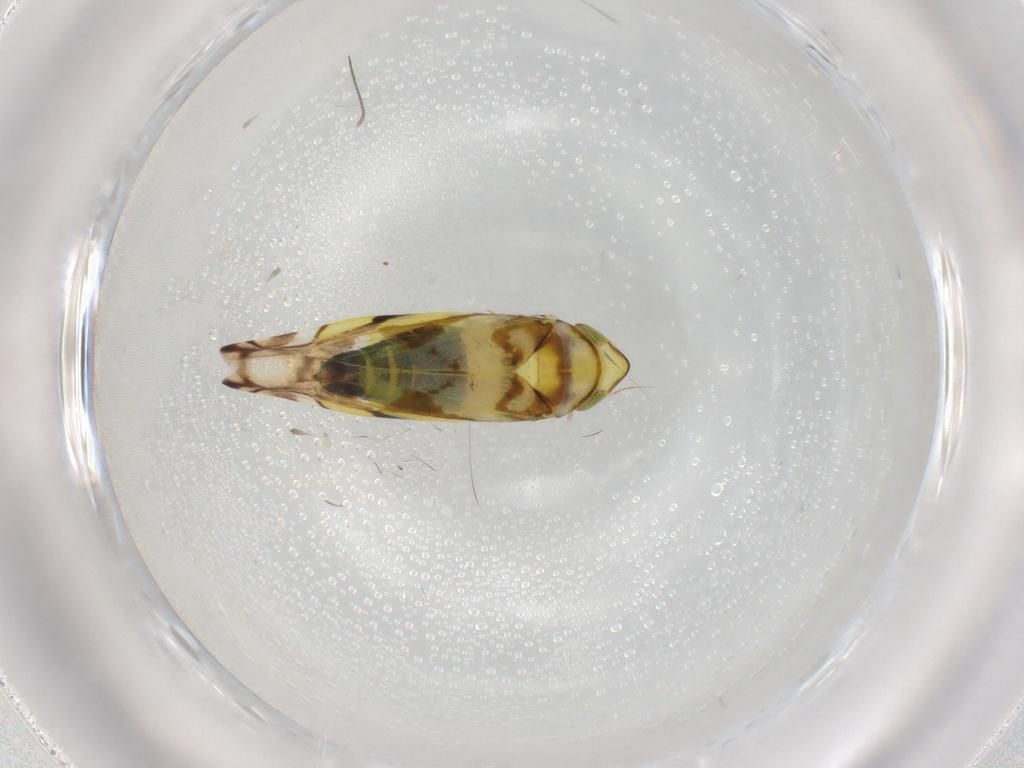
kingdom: Animalia
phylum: Arthropoda
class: Insecta
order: Hemiptera
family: Cicadellidae
